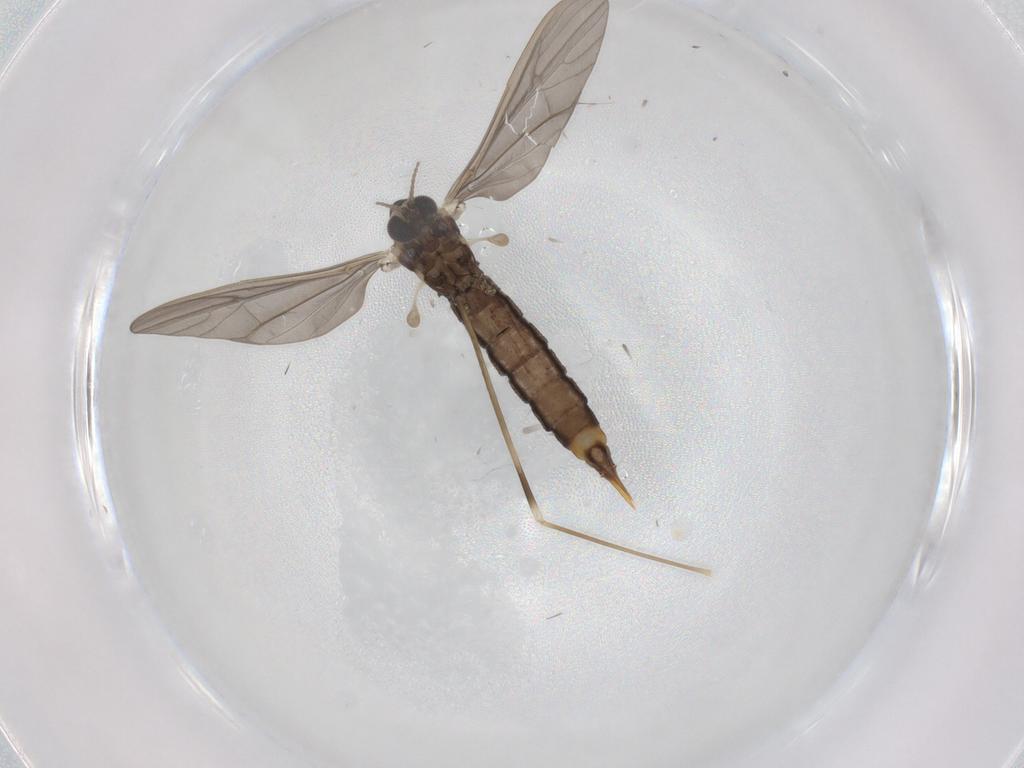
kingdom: Animalia
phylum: Arthropoda
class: Insecta
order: Diptera
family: Limoniidae
